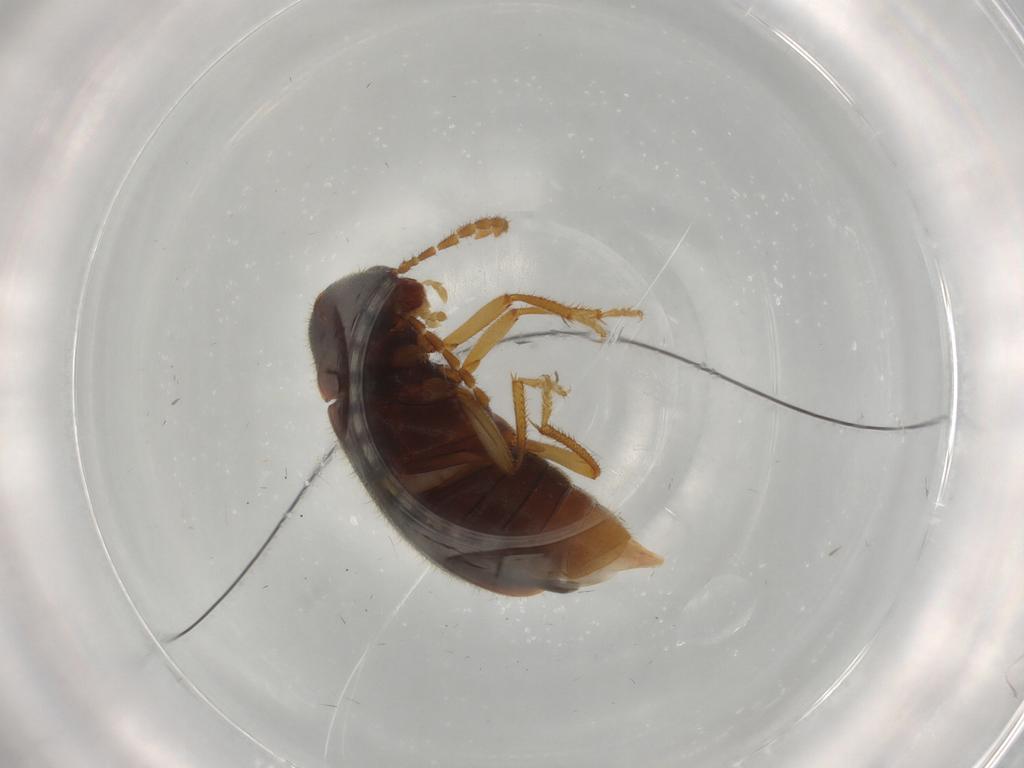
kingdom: Animalia
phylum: Arthropoda
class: Insecta
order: Coleoptera
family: Ptilodactylidae
